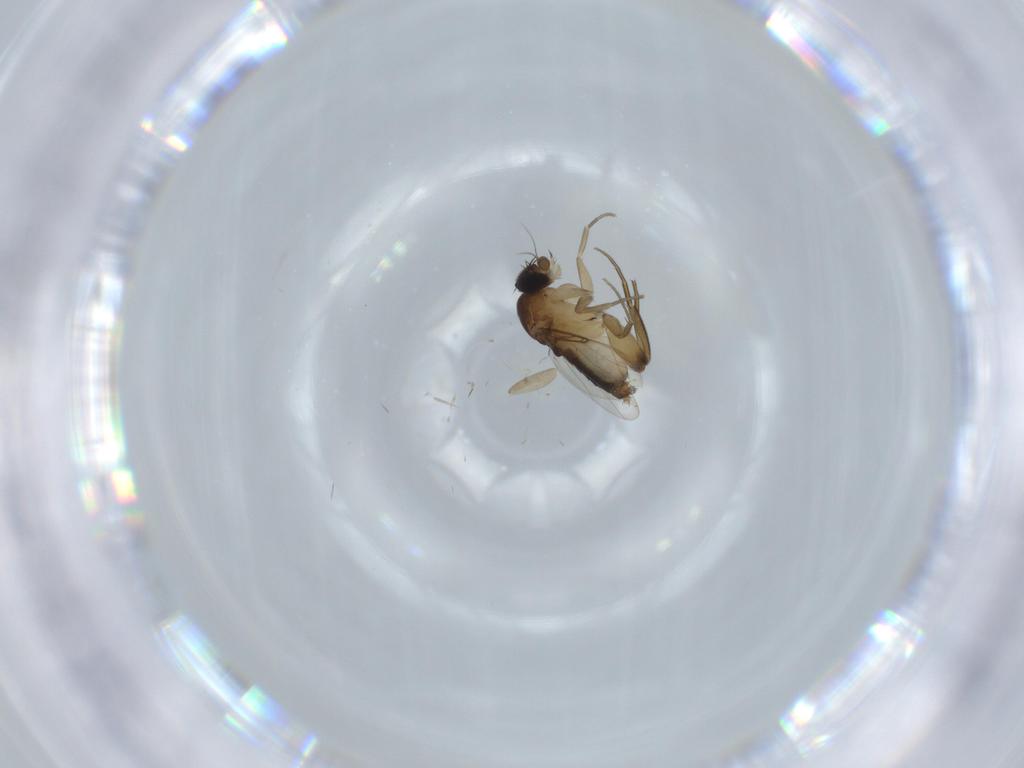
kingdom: Animalia
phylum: Arthropoda
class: Insecta
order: Diptera
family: Phoridae
